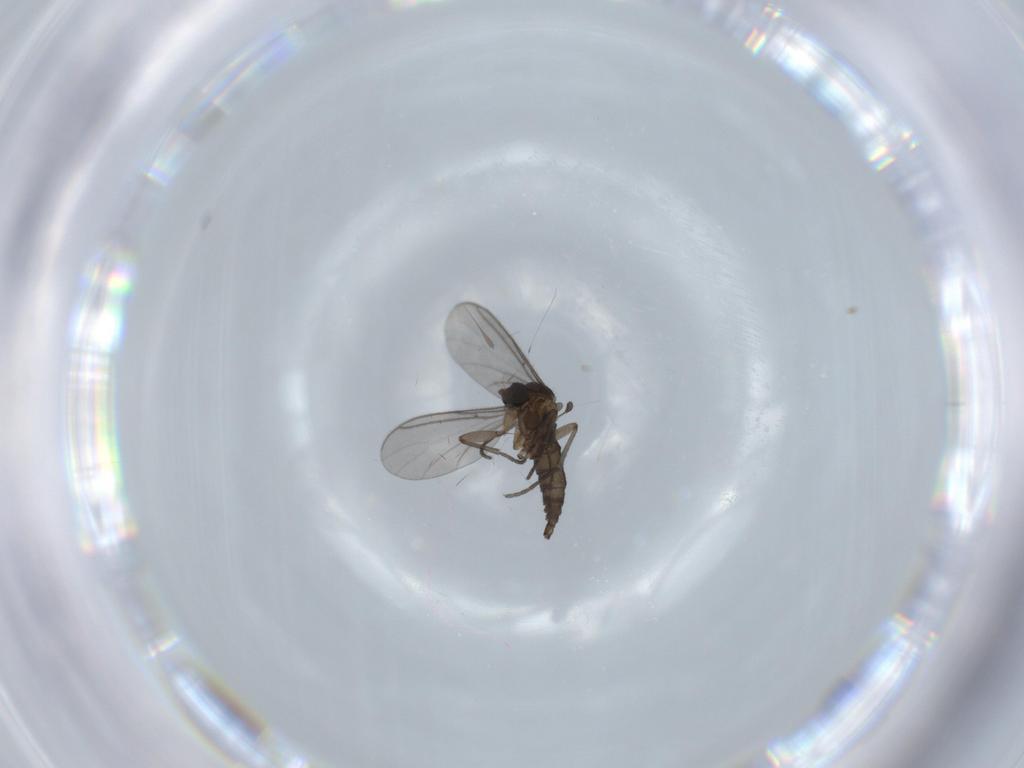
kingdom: Animalia
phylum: Arthropoda
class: Insecta
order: Diptera
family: Cecidomyiidae
